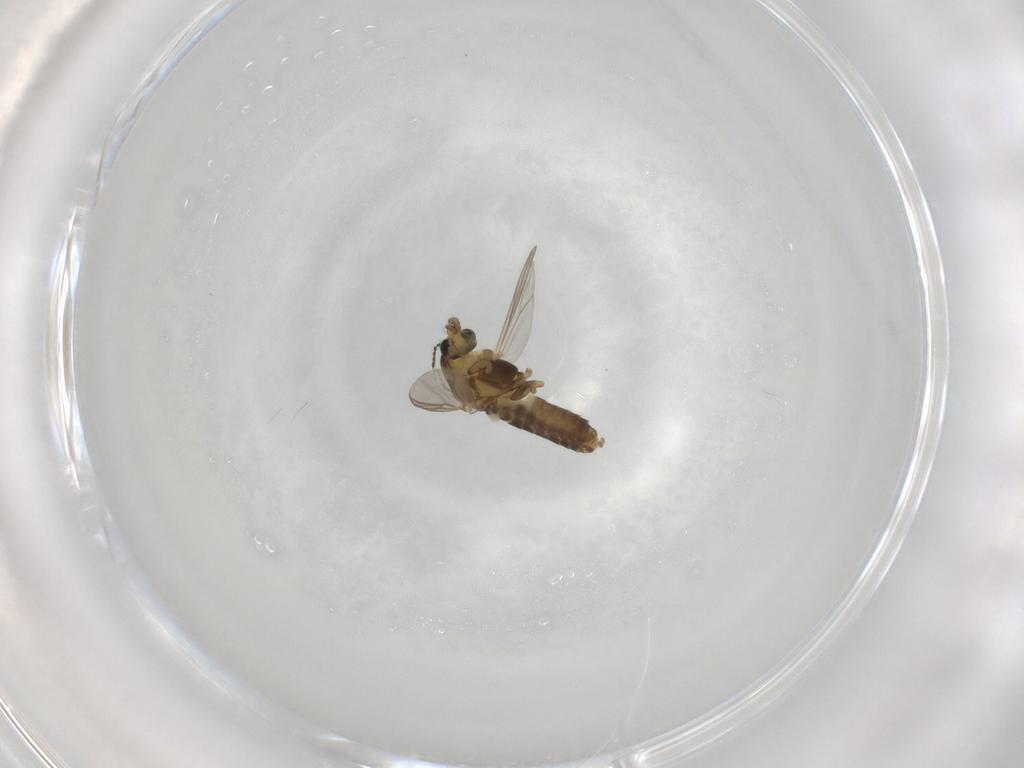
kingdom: Animalia
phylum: Arthropoda
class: Insecta
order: Diptera
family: Chironomidae
